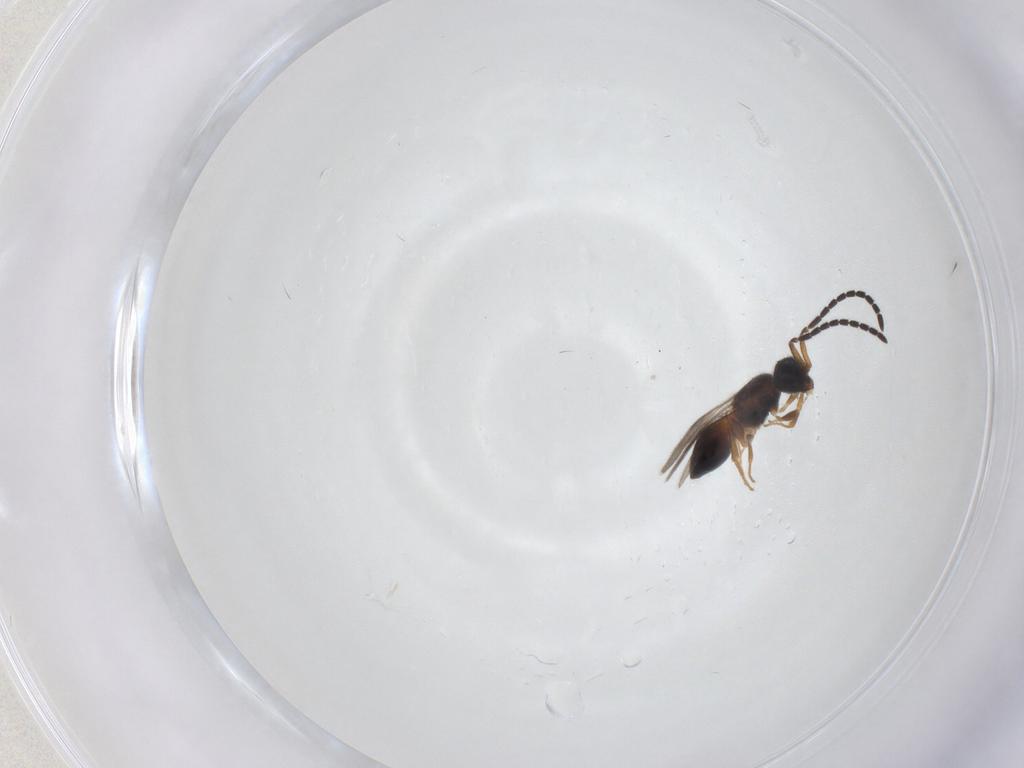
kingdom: Animalia
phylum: Arthropoda
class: Insecta
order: Hymenoptera
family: Megaspilidae
